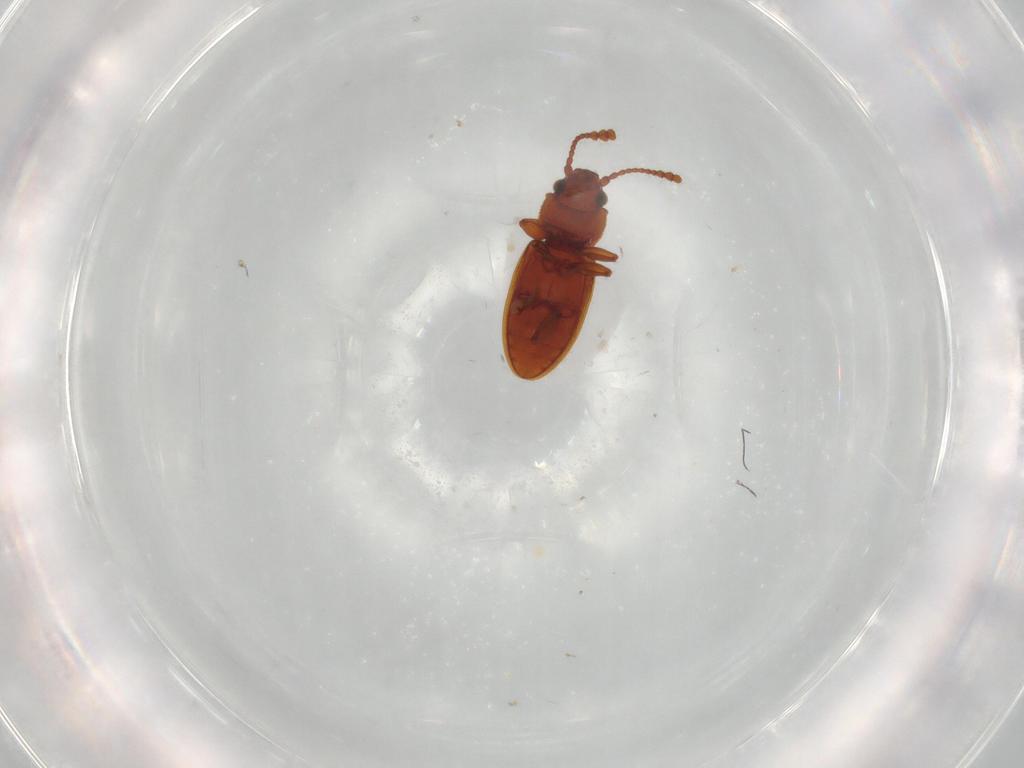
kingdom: Animalia
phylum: Arthropoda
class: Insecta
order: Coleoptera
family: Silvanidae
